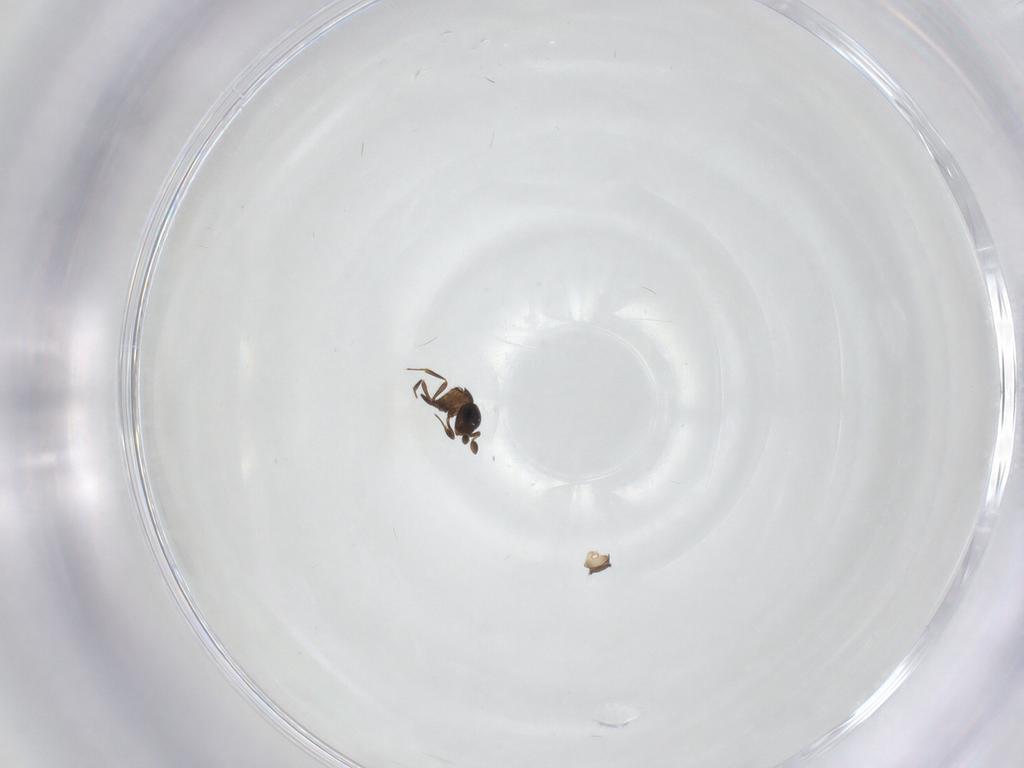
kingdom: Animalia
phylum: Arthropoda
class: Insecta
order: Hymenoptera
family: Scelionidae
